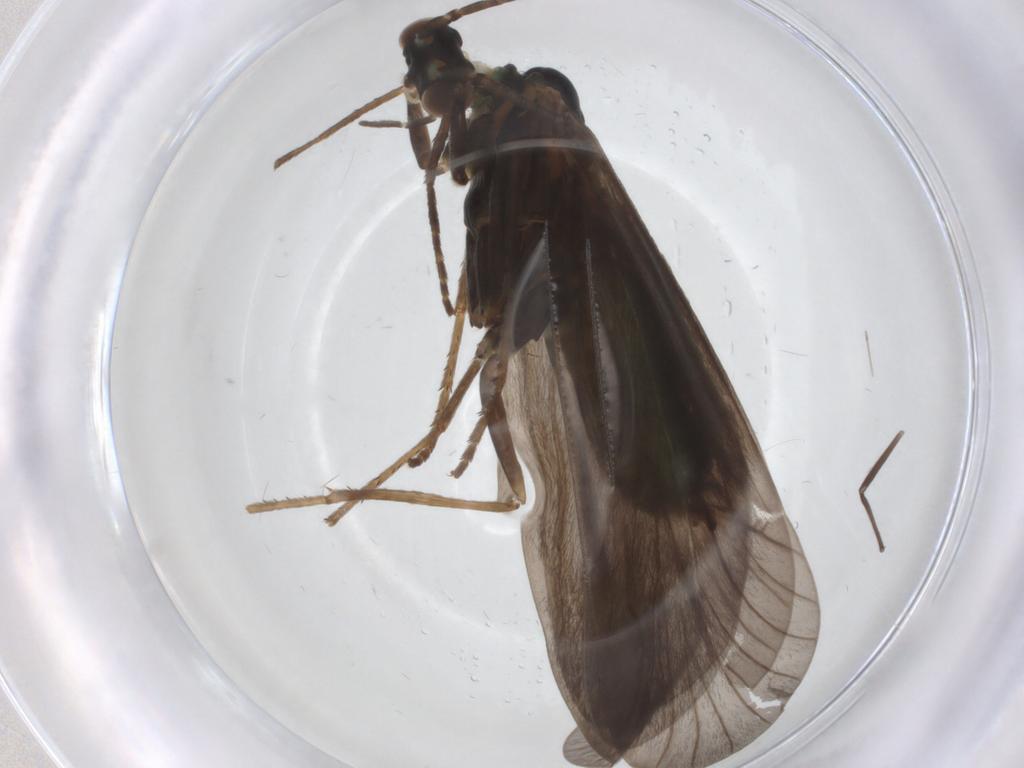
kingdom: Animalia
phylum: Arthropoda
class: Insecta
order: Trichoptera
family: Brachycentridae
